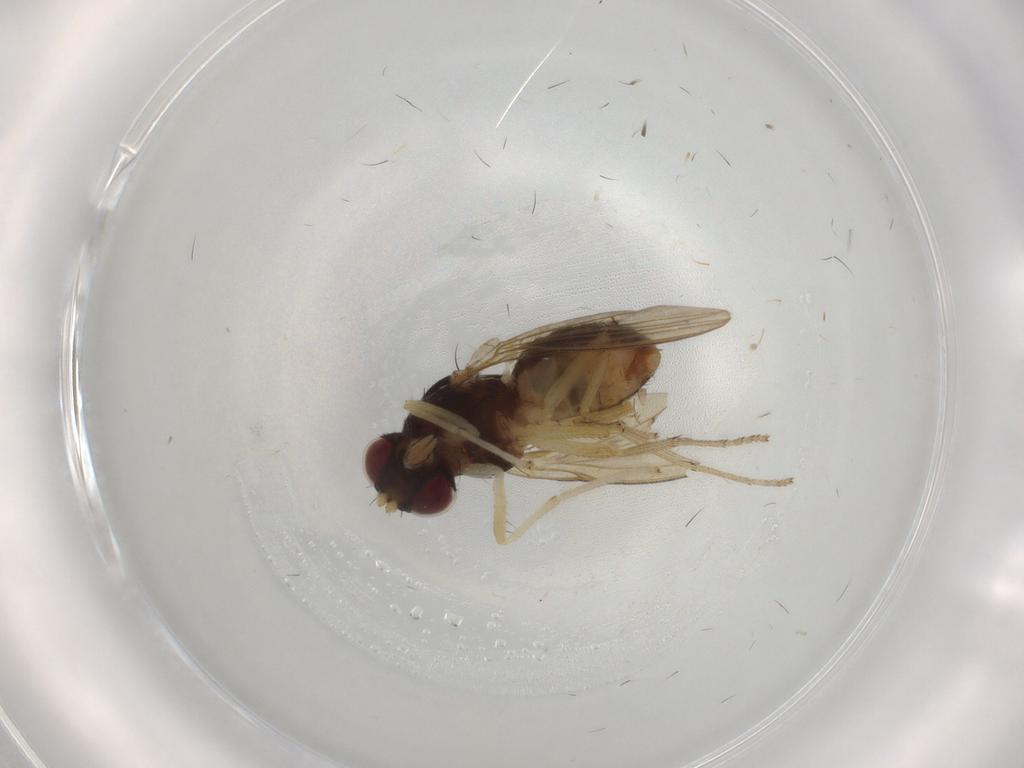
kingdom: Animalia
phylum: Arthropoda
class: Insecta
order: Diptera
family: Syrphidae
